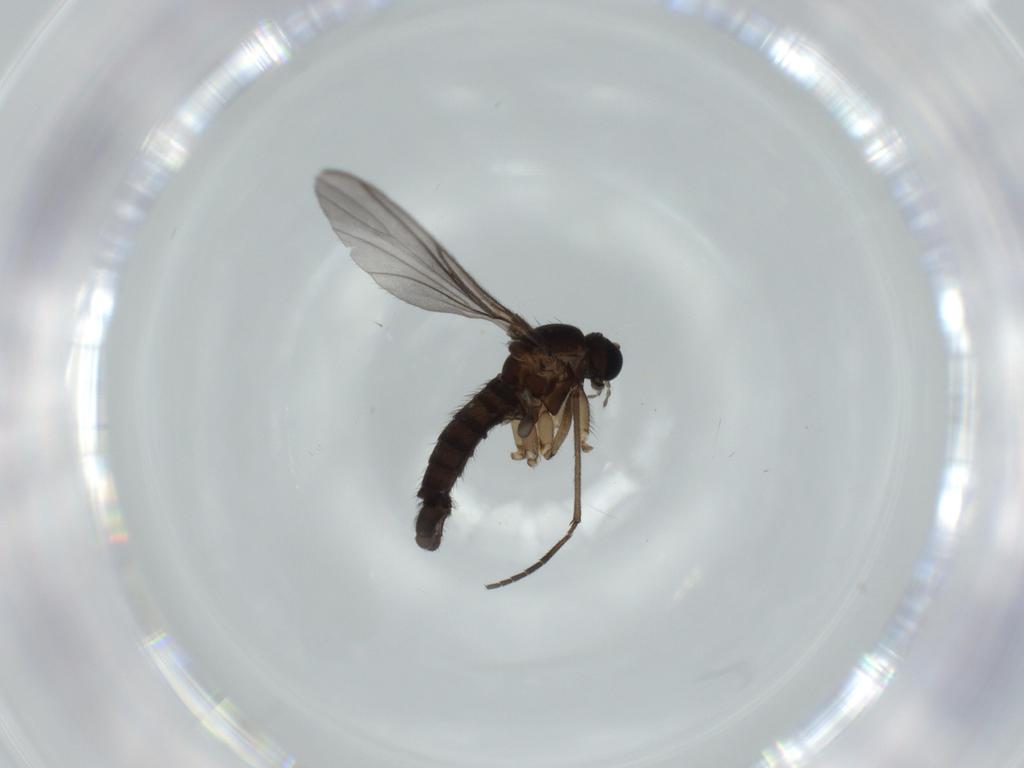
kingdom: Animalia
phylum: Arthropoda
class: Insecta
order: Diptera
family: Sciaridae
